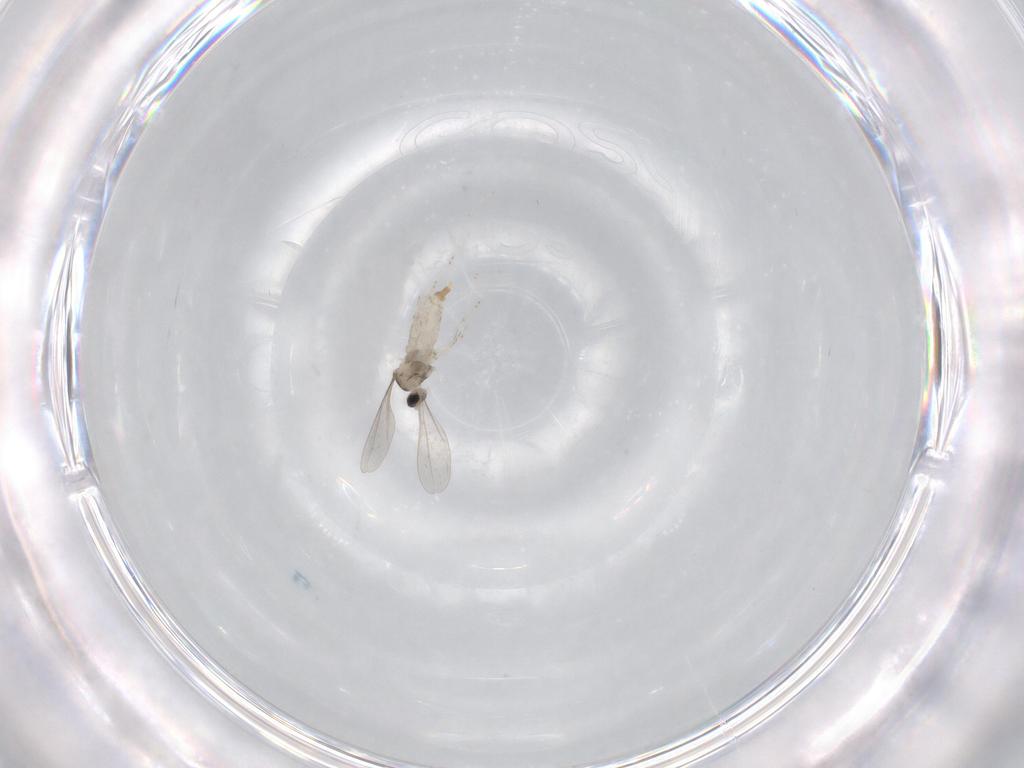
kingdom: Animalia
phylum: Arthropoda
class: Insecta
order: Diptera
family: Cecidomyiidae
